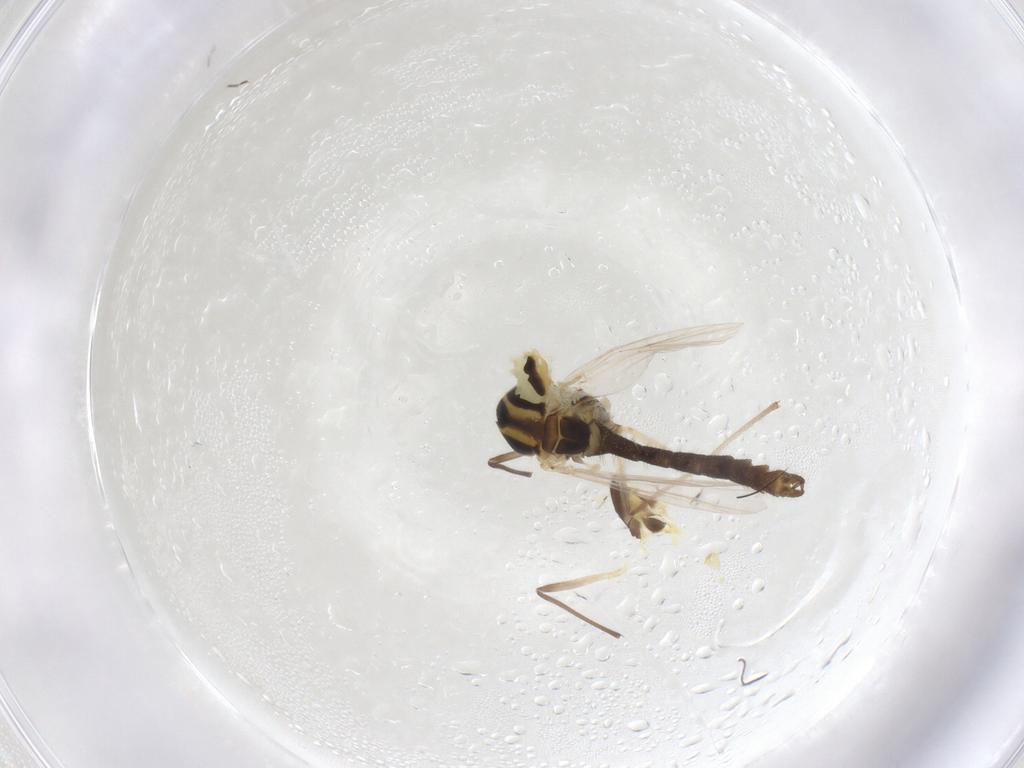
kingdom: Animalia
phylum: Arthropoda
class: Insecta
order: Diptera
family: Chironomidae
